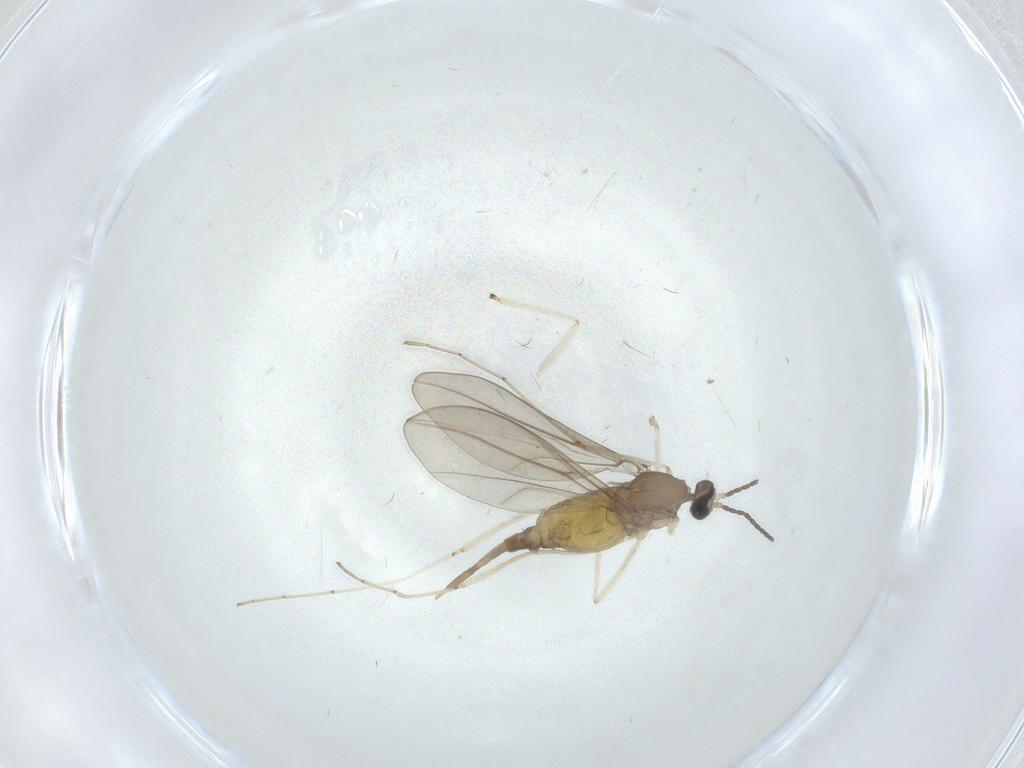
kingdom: Animalia
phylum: Arthropoda
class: Insecta
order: Diptera
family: Cecidomyiidae
